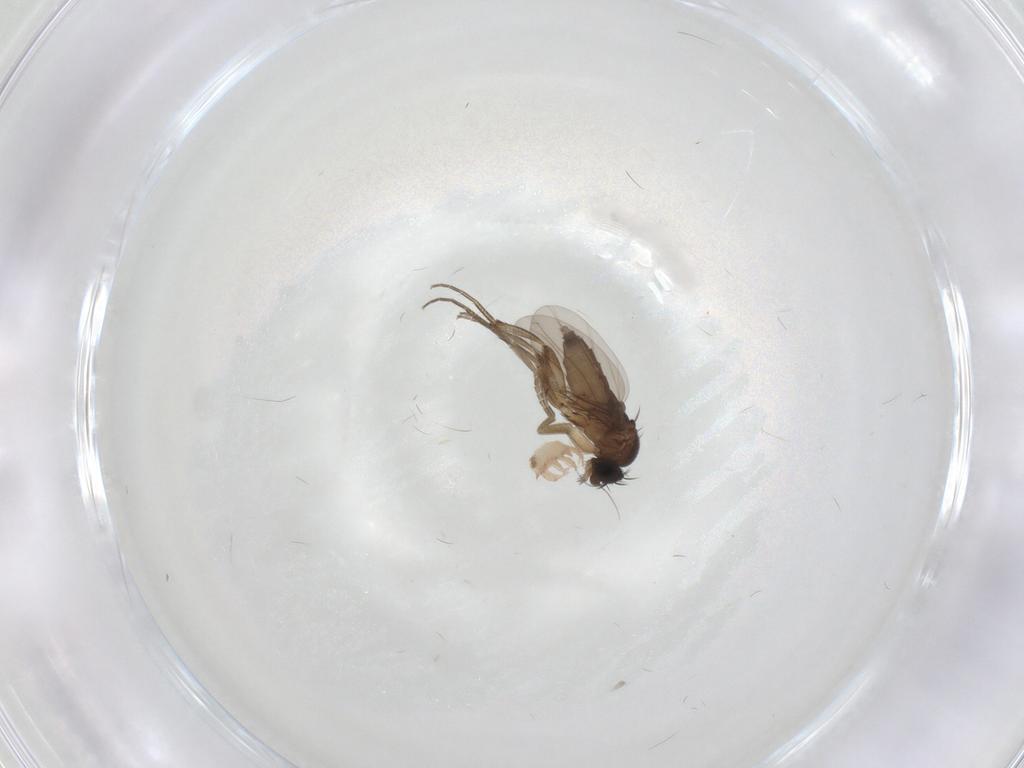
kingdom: Animalia
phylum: Arthropoda
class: Insecta
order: Diptera
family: Phoridae
